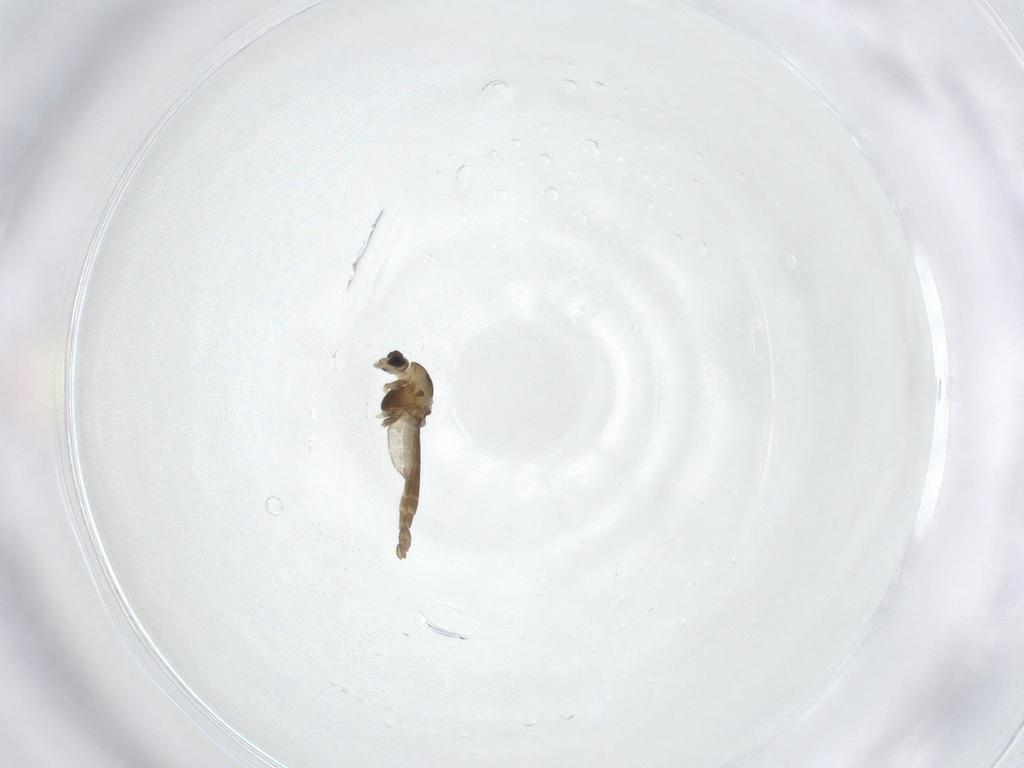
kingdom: Animalia
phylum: Arthropoda
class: Insecta
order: Diptera
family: Chironomidae
